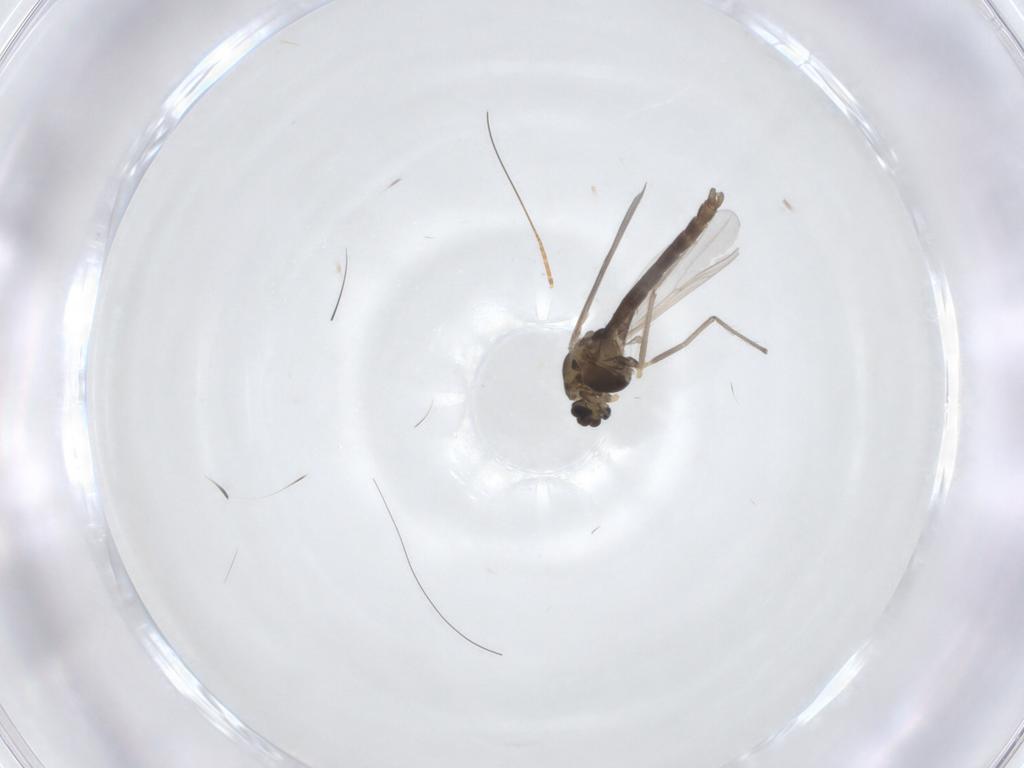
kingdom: Animalia
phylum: Arthropoda
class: Insecta
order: Diptera
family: Chironomidae
